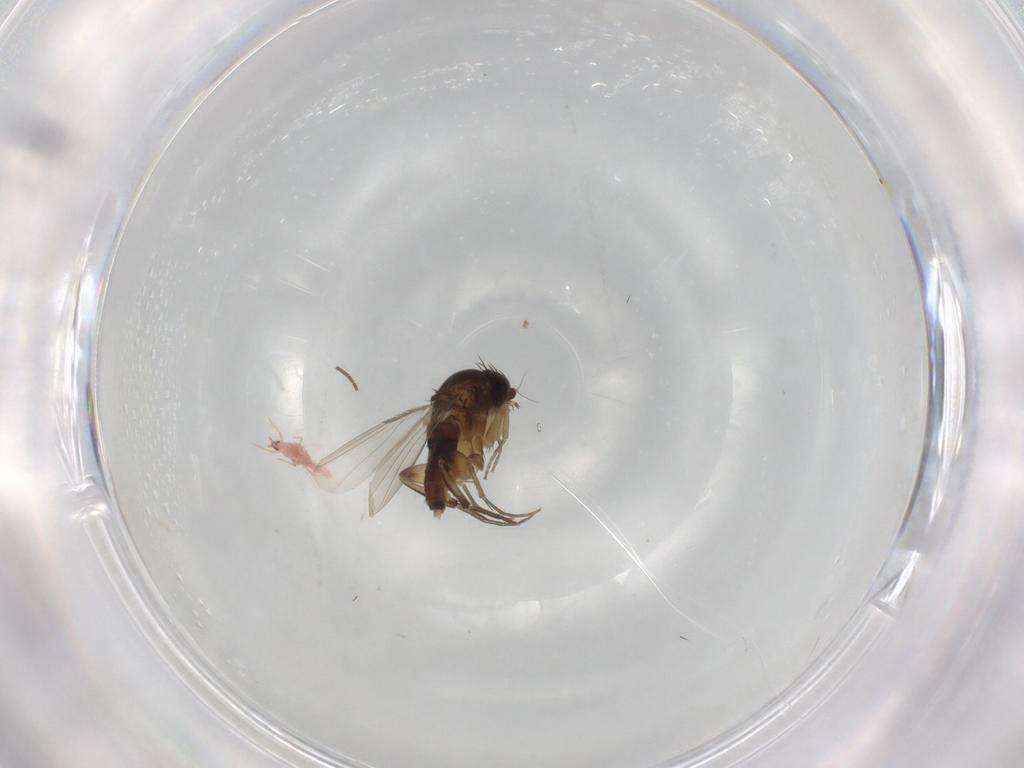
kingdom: Animalia
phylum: Arthropoda
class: Insecta
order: Diptera
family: Phoridae
